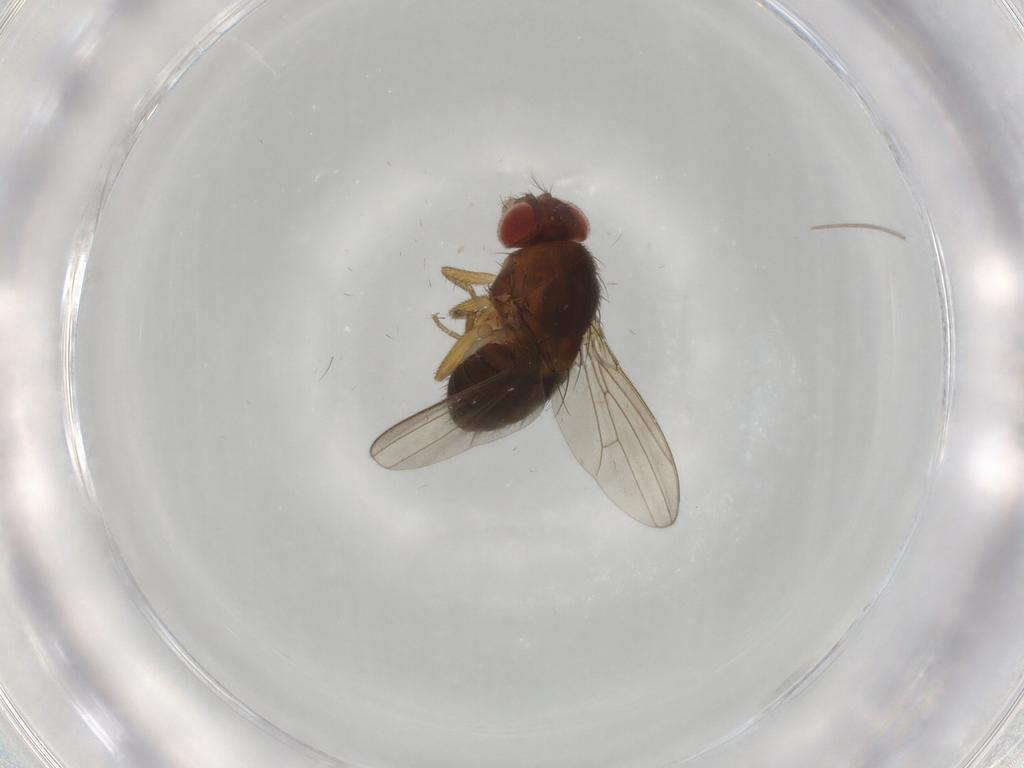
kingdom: Animalia
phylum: Arthropoda
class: Insecta
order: Diptera
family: Drosophilidae
